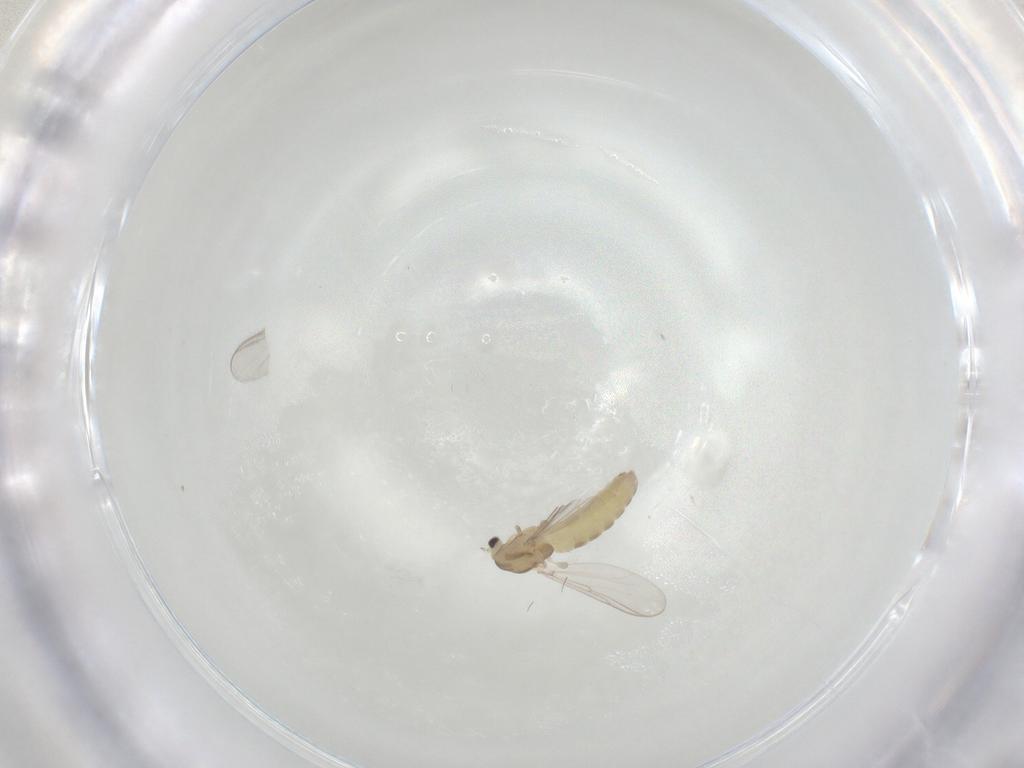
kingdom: Animalia
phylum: Arthropoda
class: Insecta
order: Diptera
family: Chironomidae
